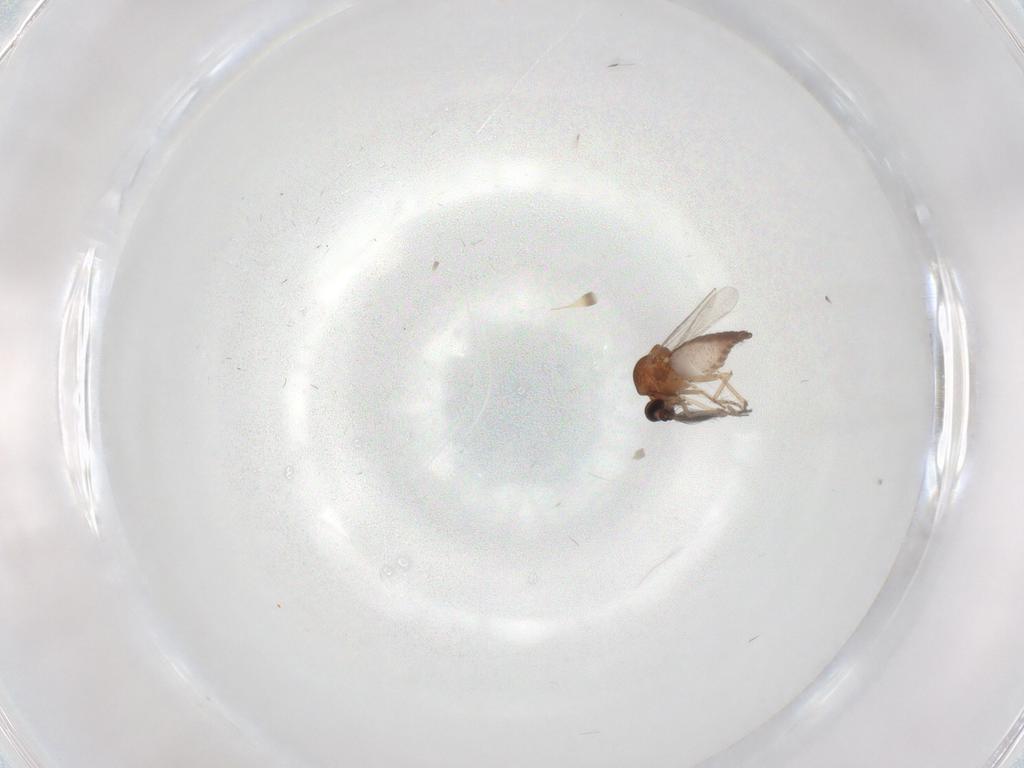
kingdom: Animalia
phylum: Arthropoda
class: Insecta
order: Diptera
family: Ceratopogonidae
